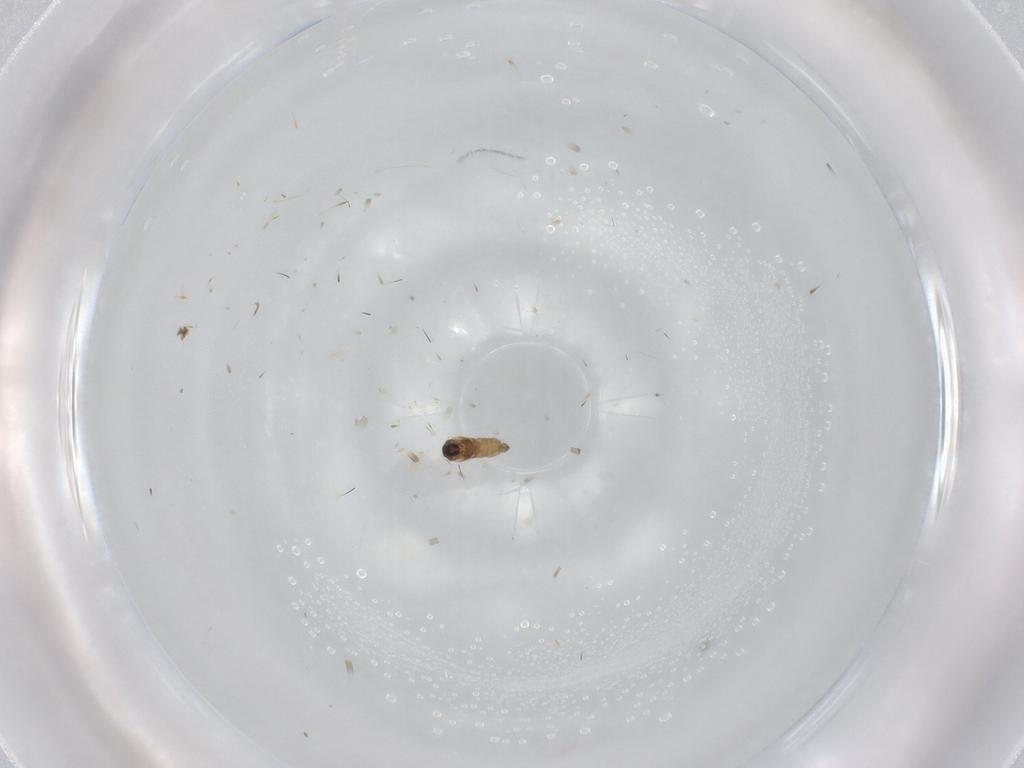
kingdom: Animalia
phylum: Arthropoda
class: Insecta
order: Diptera
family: Cecidomyiidae
